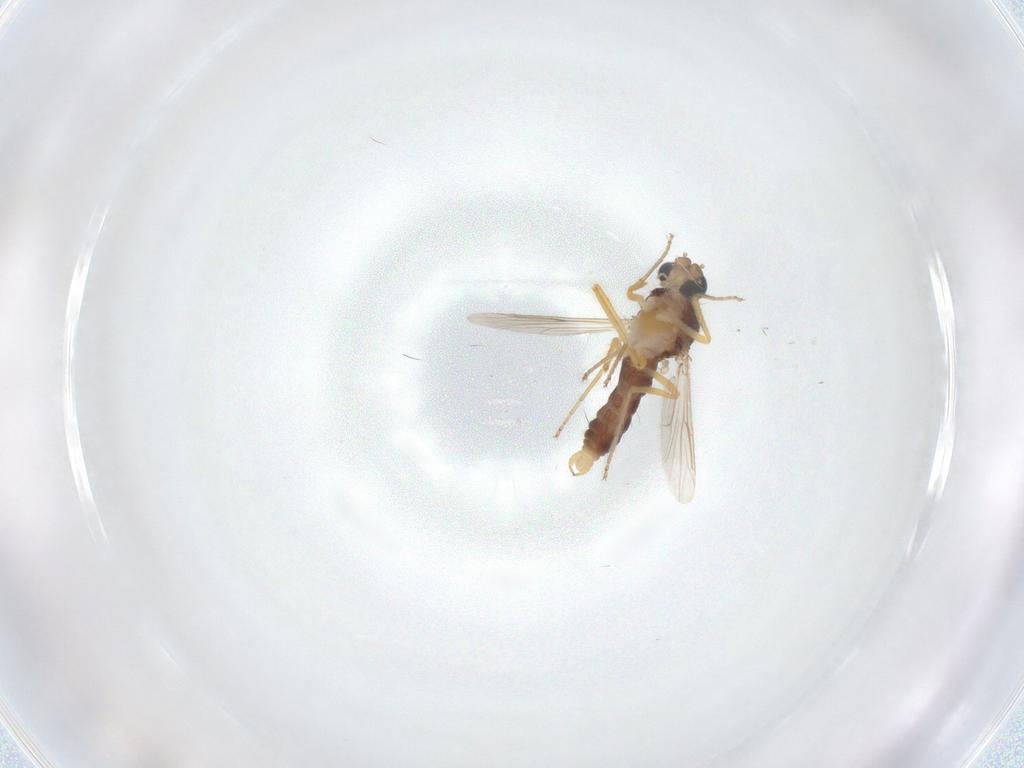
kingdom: Animalia
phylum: Arthropoda
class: Insecta
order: Diptera
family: Ceratopogonidae
